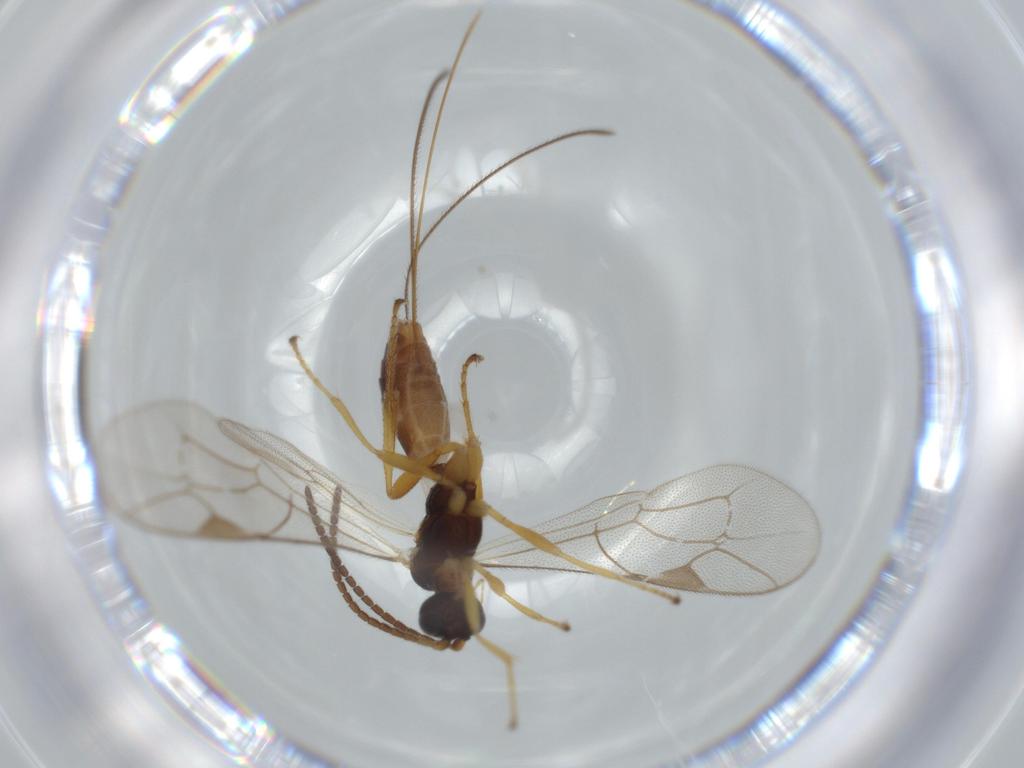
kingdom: Animalia
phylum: Arthropoda
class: Insecta
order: Hymenoptera
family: Ichneumonidae
